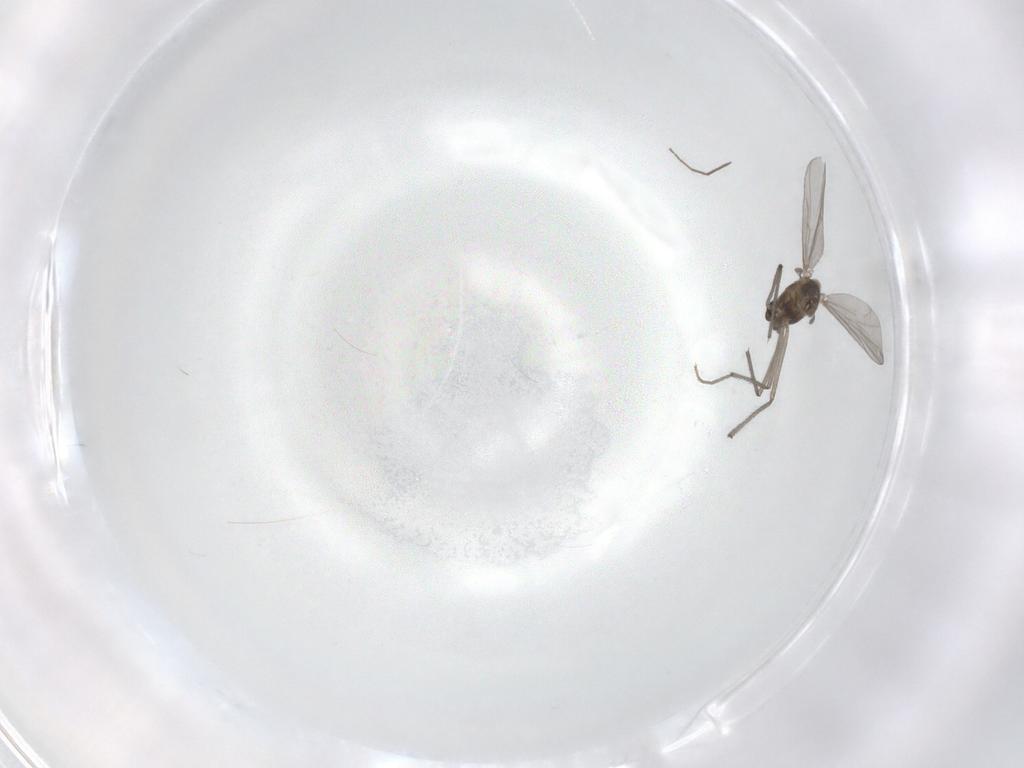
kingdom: Animalia
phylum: Arthropoda
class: Insecta
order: Diptera
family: Chironomidae
